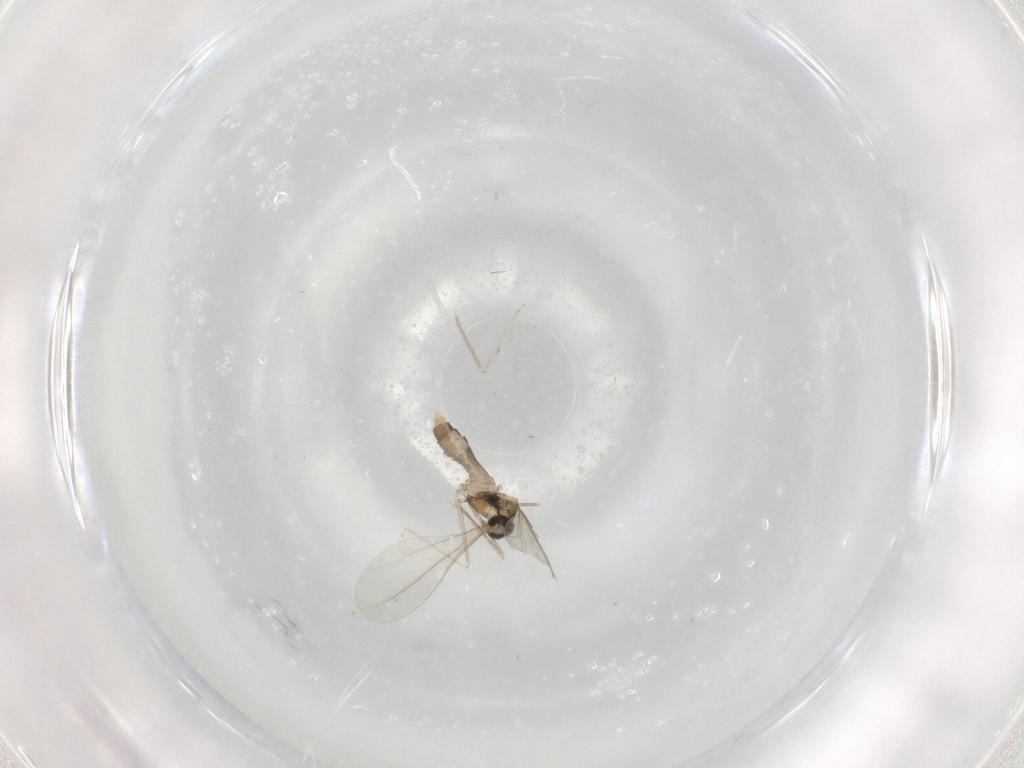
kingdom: Animalia
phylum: Arthropoda
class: Insecta
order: Diptera
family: Cecidomyiidae
